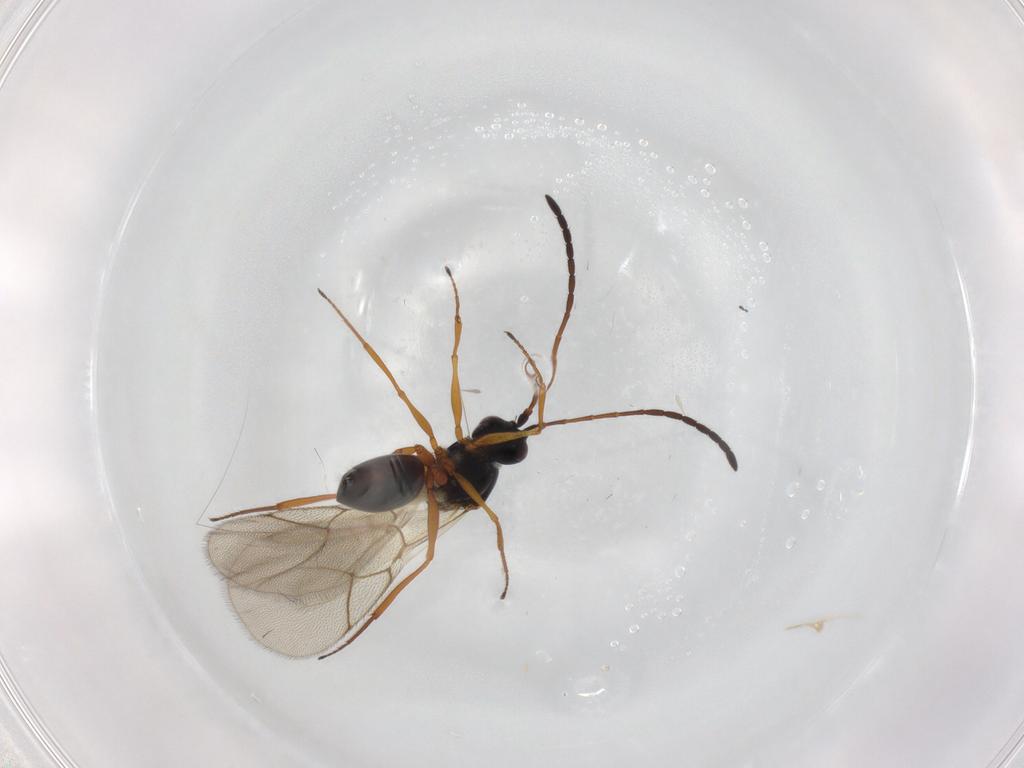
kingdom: Animalia
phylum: Arthropoda
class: Insecta
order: Hymenoptera
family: Figitidae
